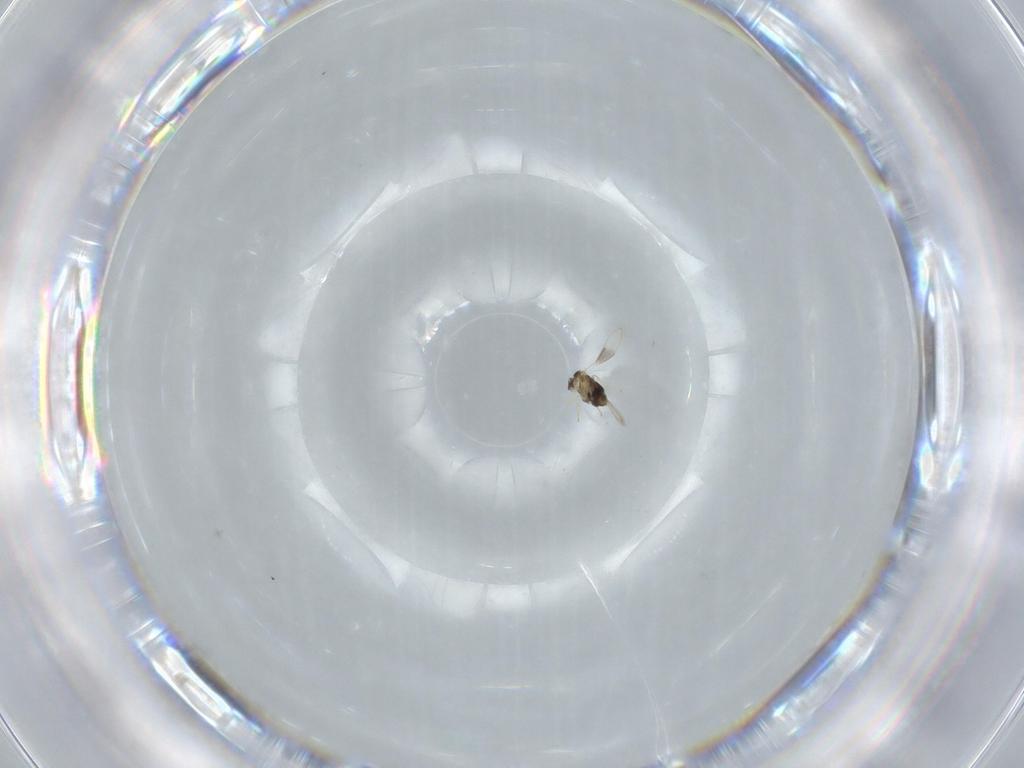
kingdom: Animalia
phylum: Arthropoda
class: Insecta
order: Hymenoptera
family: Aphelinidae
